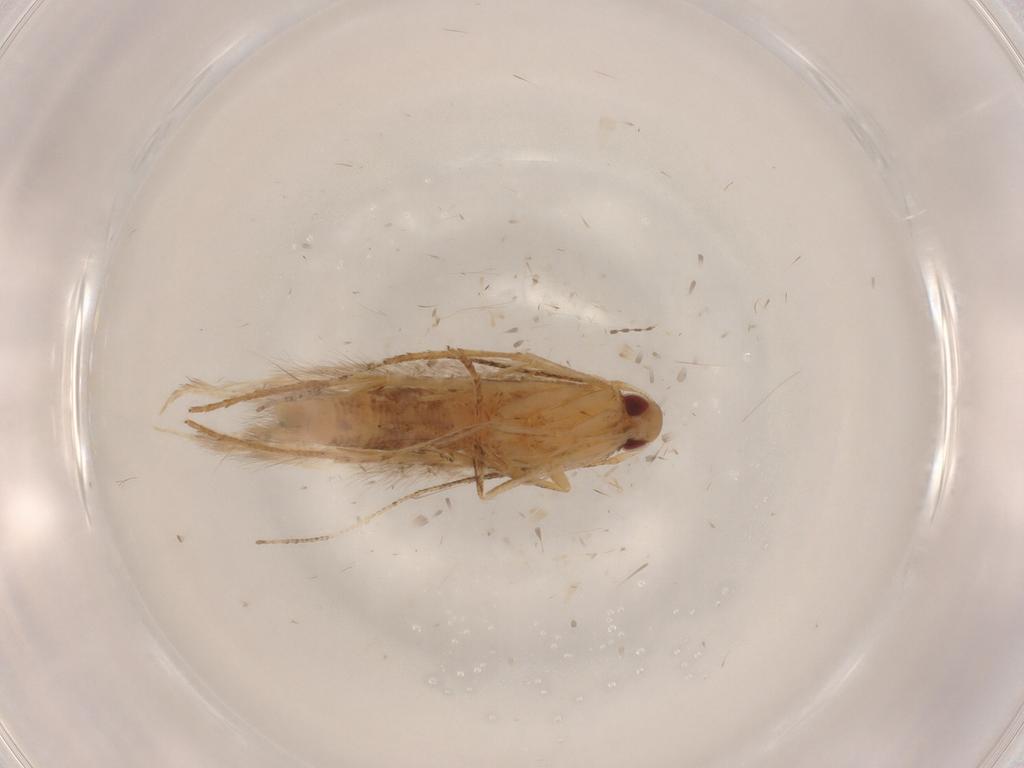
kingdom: Animalia
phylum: Arthropoda
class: Insecta
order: Lepidoptera
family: Cosmopterigidae
